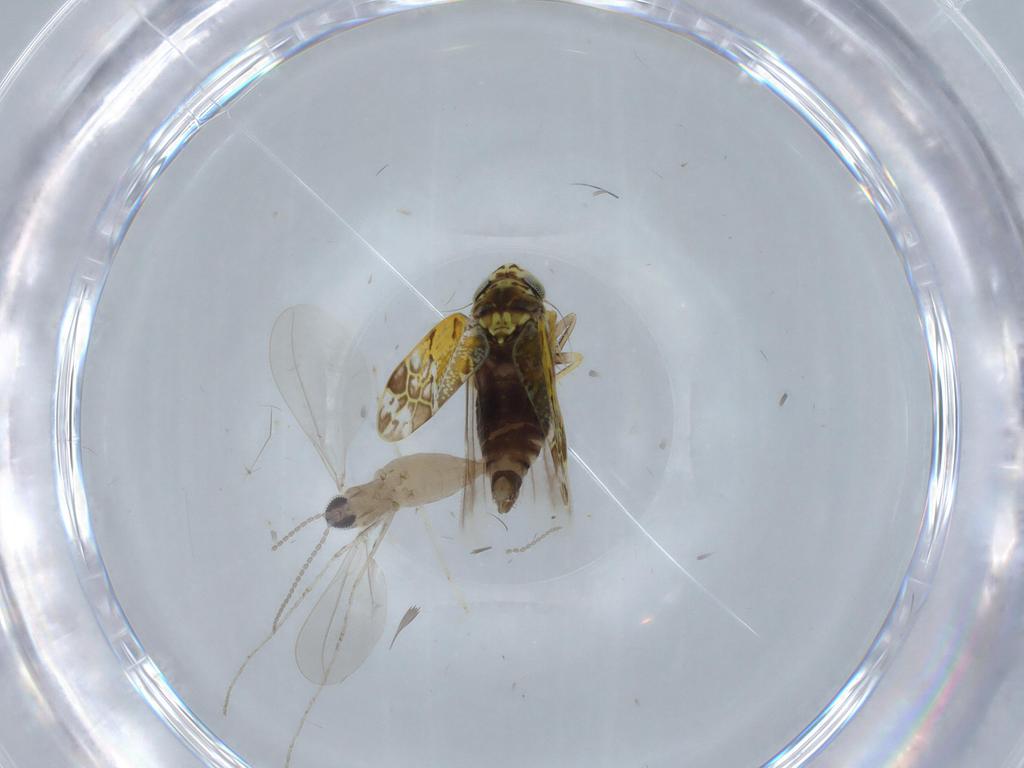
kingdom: Animalia
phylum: Arthropoda
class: Insecta
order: Diptera
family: Cecidomyiidae
